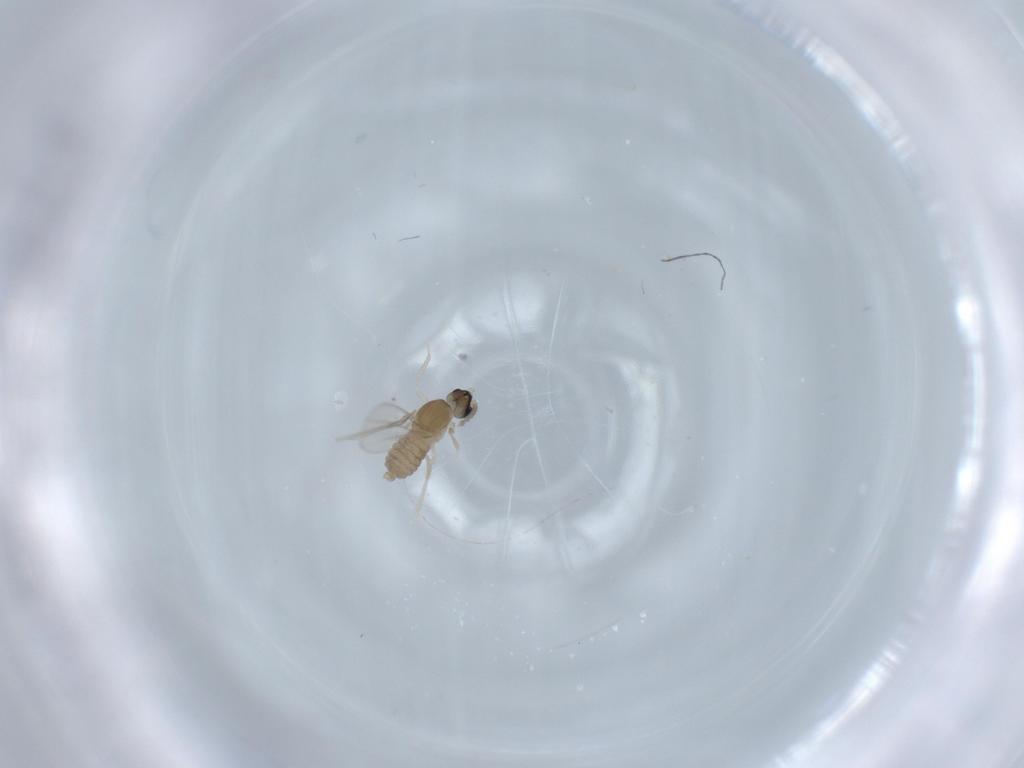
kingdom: Animalia
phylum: Arthropoda
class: Insecta
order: Diptera
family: Cecidomyiidae
